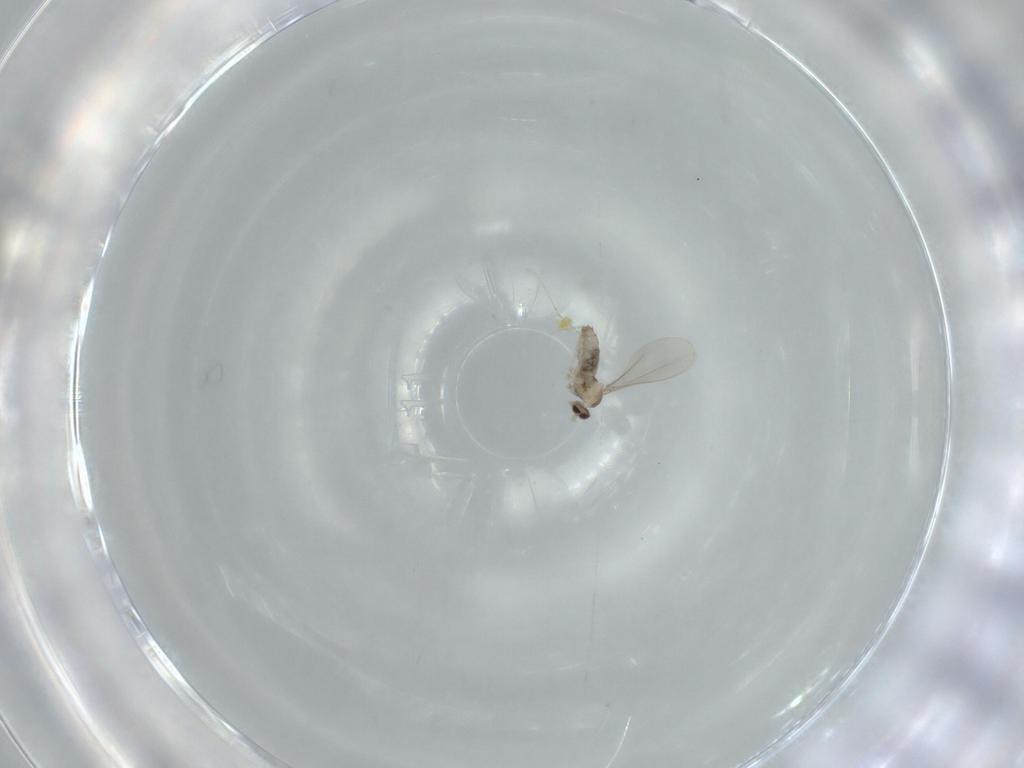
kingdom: Animalia
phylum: Arthropoda
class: Insecta
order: Diptera
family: Cecidomyiidae
